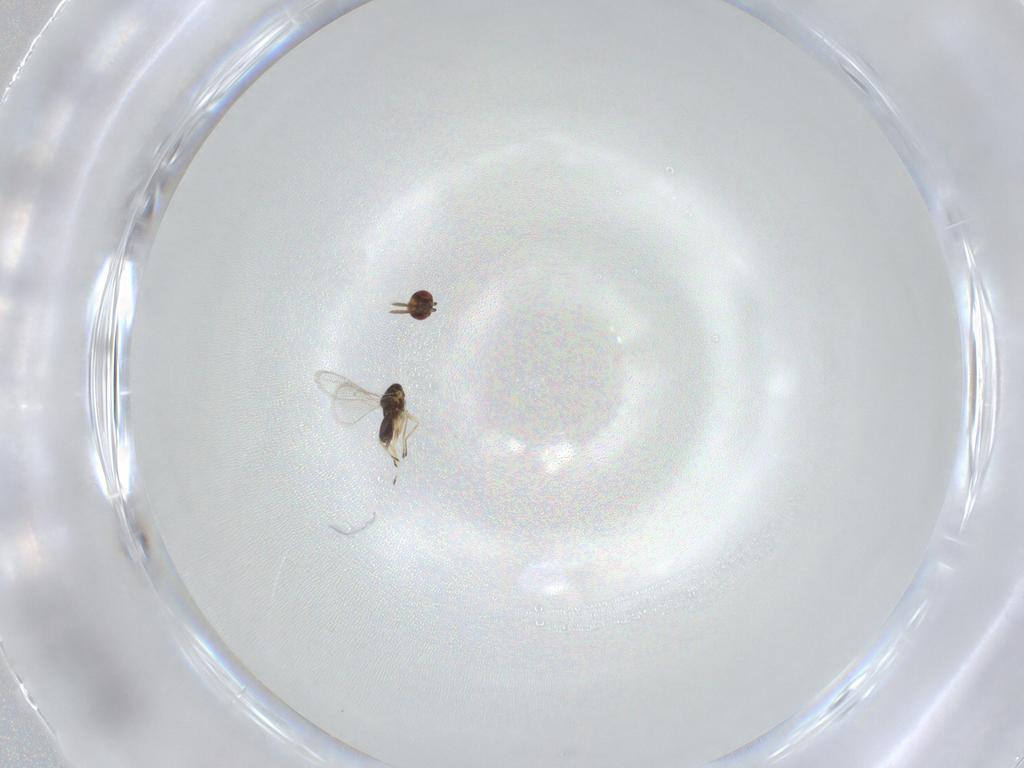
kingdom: Animalia
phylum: Arthropoda
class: Insecta
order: Hymenoptera
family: Eulophidae
